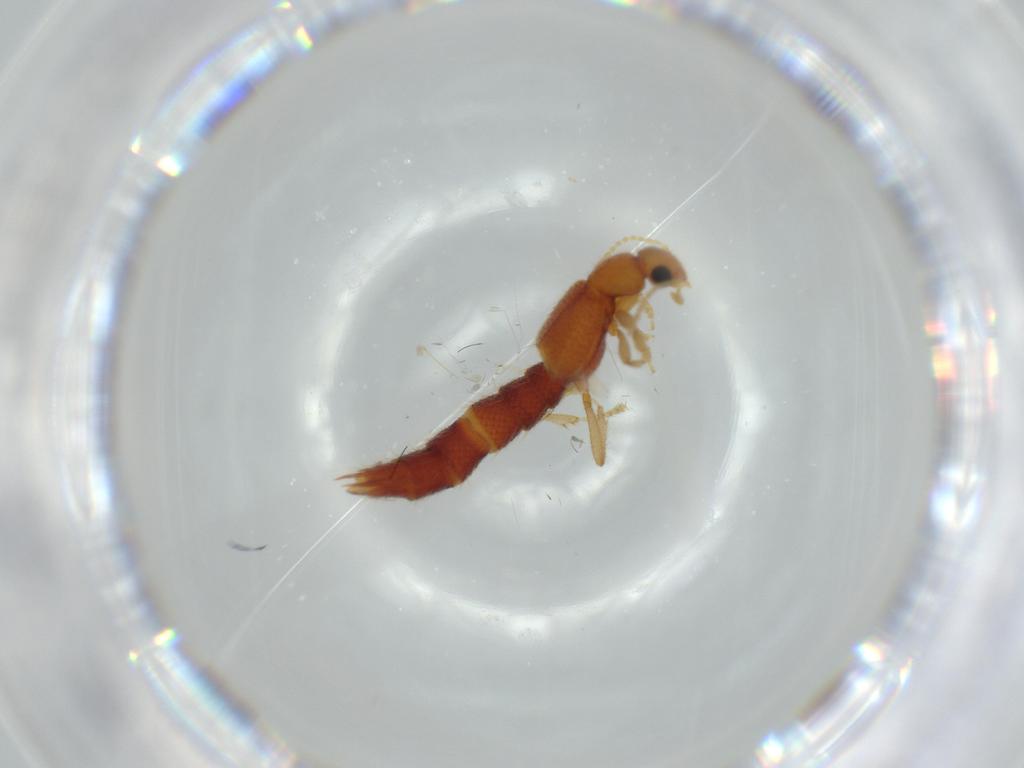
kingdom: Animalia
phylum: Arthropoda
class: Insecta
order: Coleoptera
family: Staphylinidae
